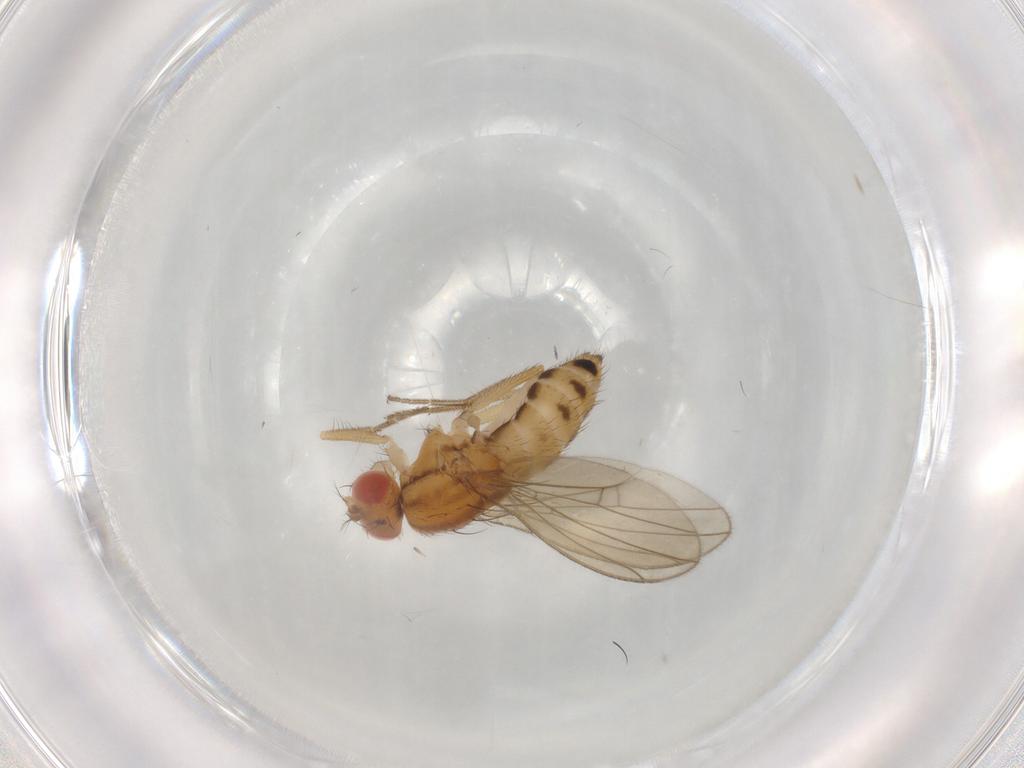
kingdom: Animalia
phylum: Arthropoda
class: Insecta
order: Diptera
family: Drosophilidae
